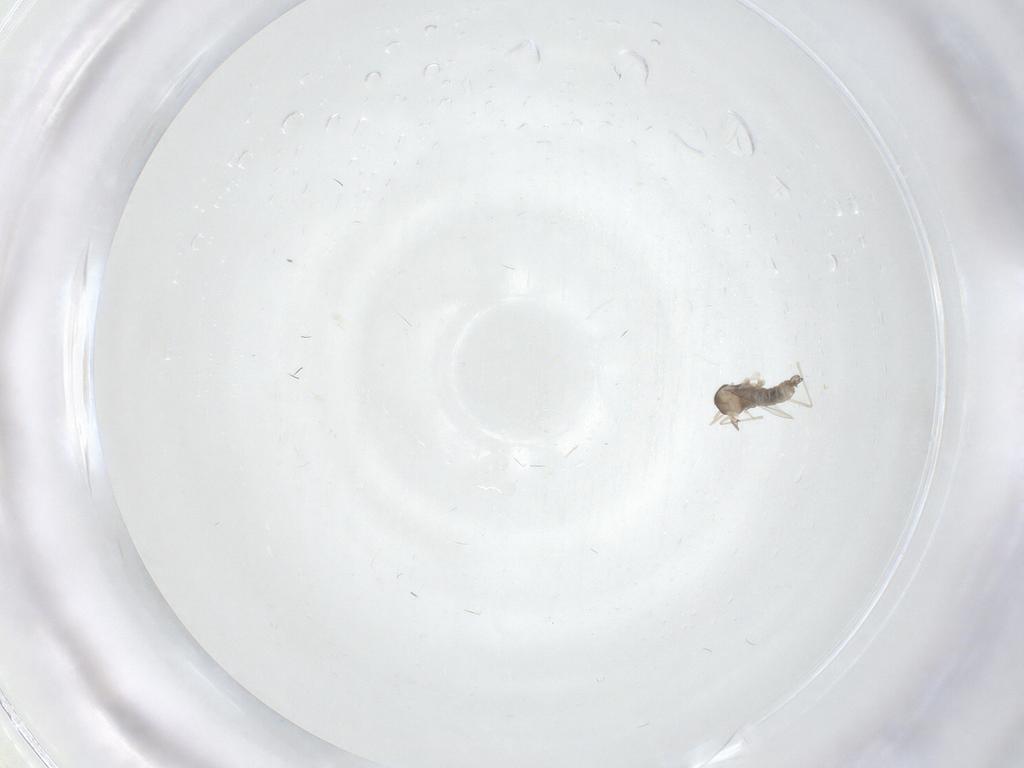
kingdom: Animalia
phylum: Arthropoda
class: Insecta
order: Diptera
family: Cecidomyiidae
